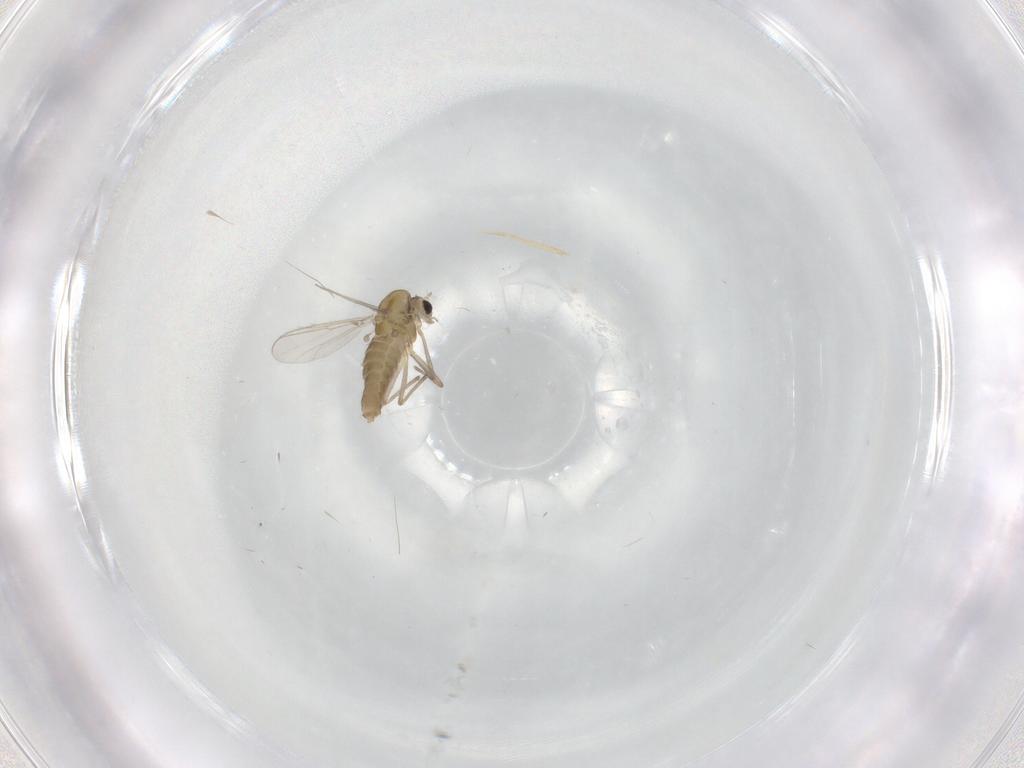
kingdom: Animalia
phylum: Arthropoda
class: Insecta
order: Diptera
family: Chironomidae
